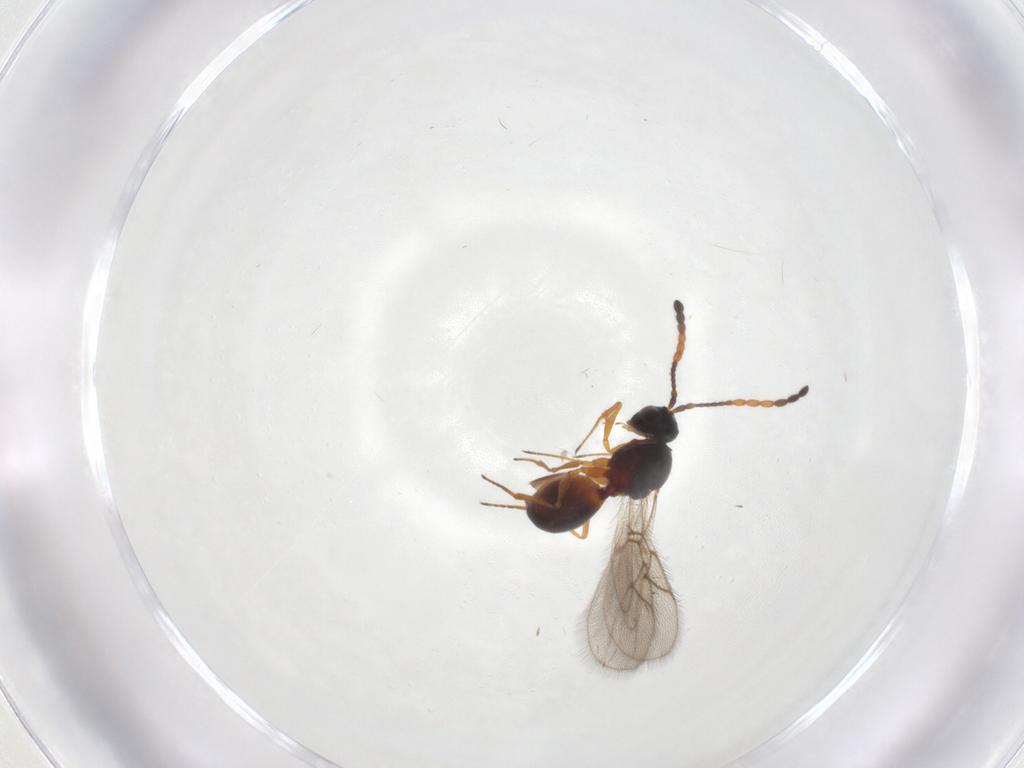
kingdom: Animalia
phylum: Arthropoda
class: Insecta
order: Hymenoptera
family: Figitidae
